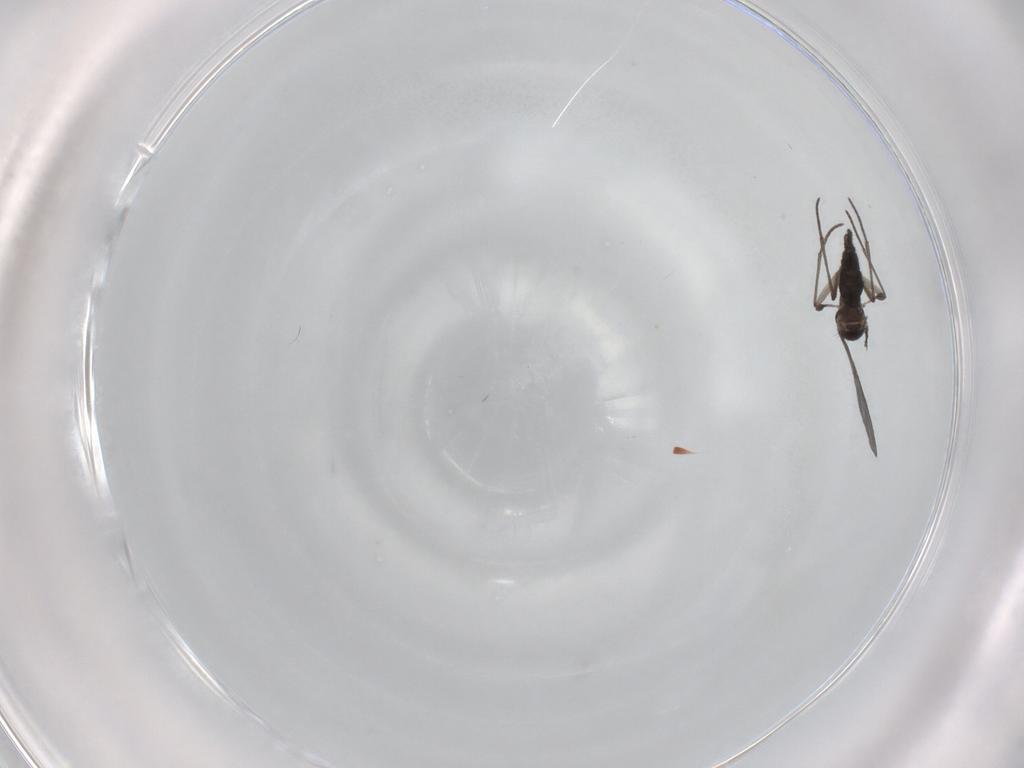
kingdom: Animalia
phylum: Arthropoda
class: Insecta
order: Diptera
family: Sciaridae
